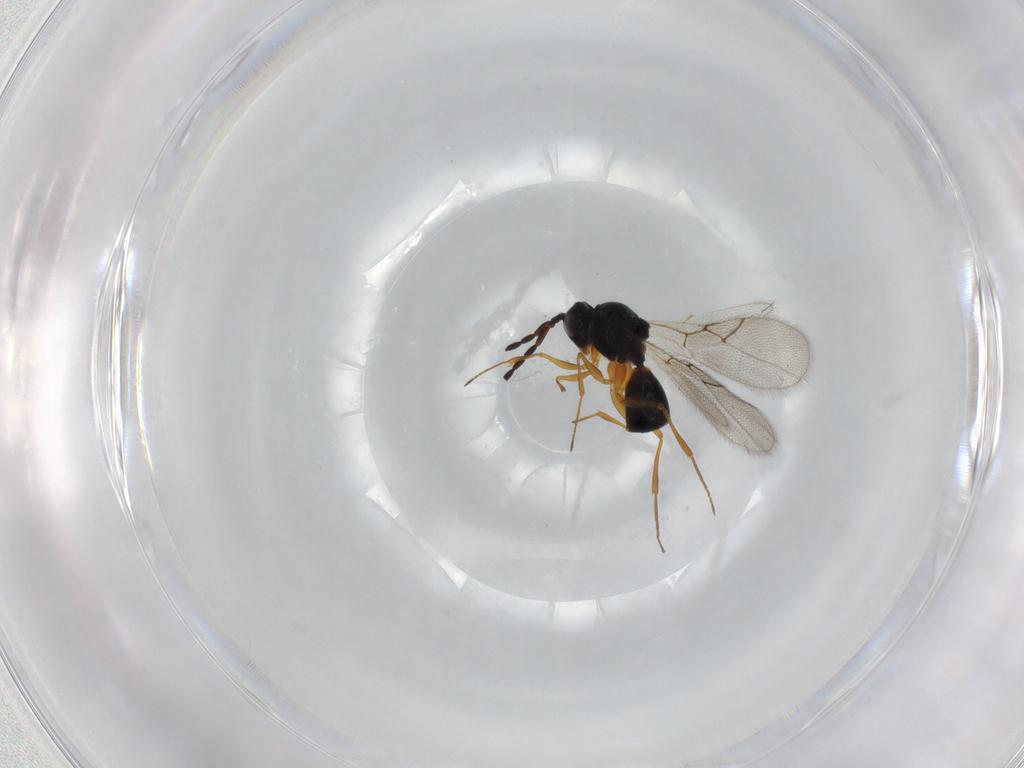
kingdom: Animalia
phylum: Arthropoda
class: Insecta
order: Hymenoptera
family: Figitidae
